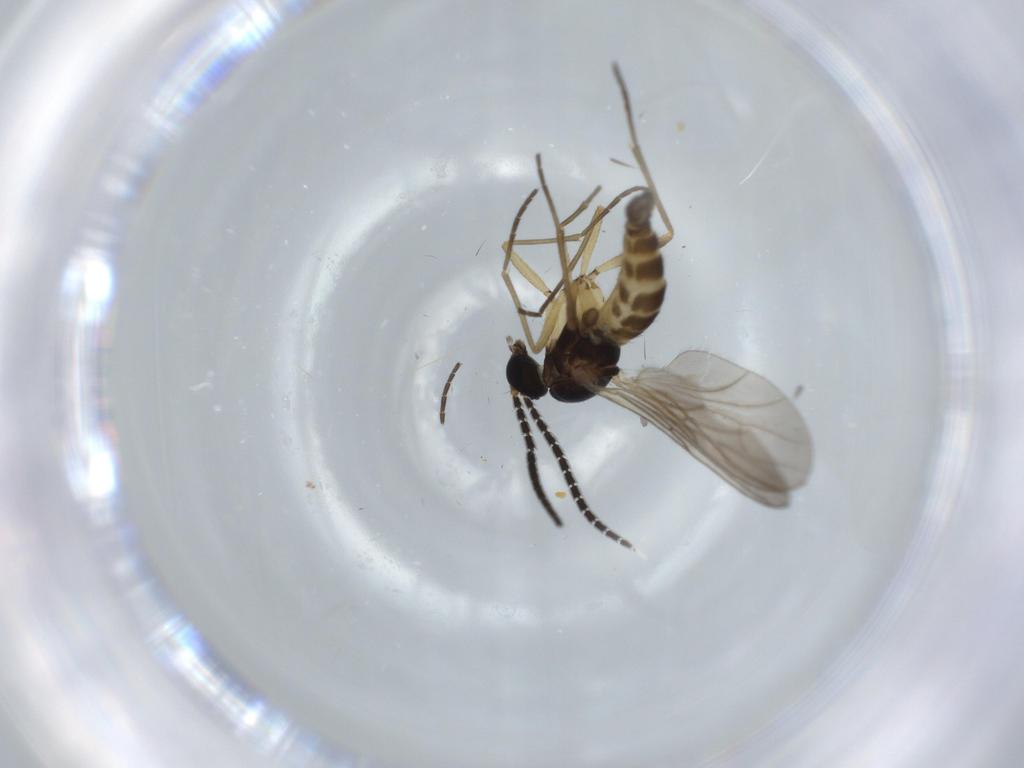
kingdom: Animalia
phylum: Arthropoda
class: Insecta
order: Diptera
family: Sciaridae
